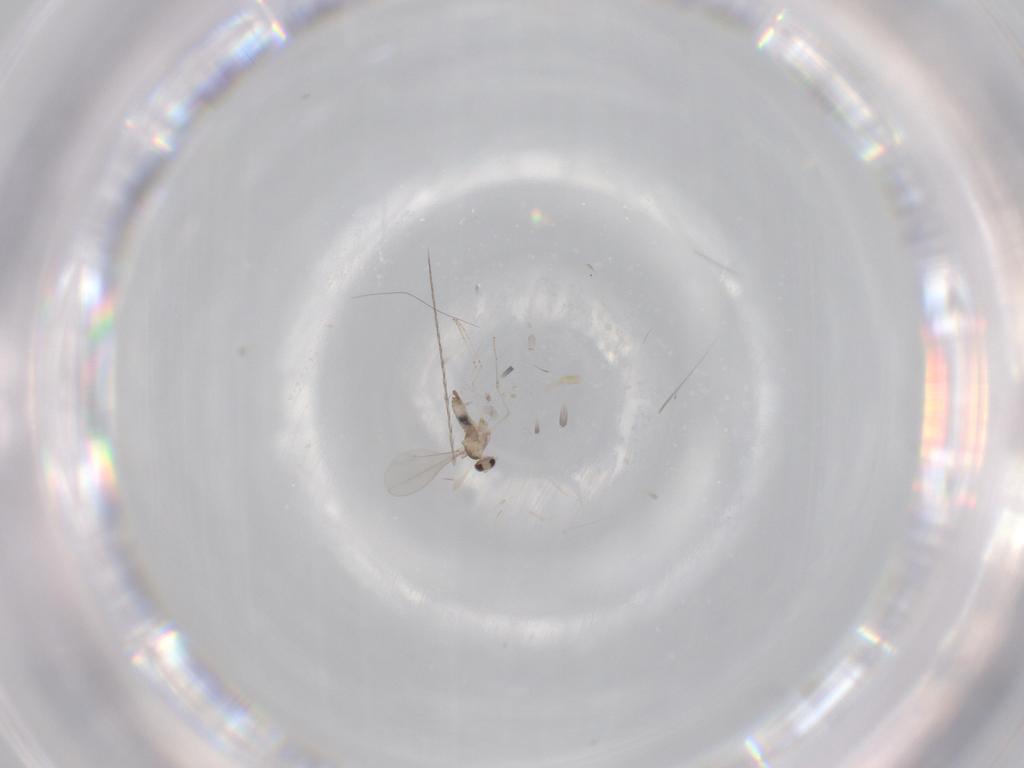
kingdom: Animalia
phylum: Arthropoda
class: Insecta
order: Diptera
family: Cecidomyiidae
